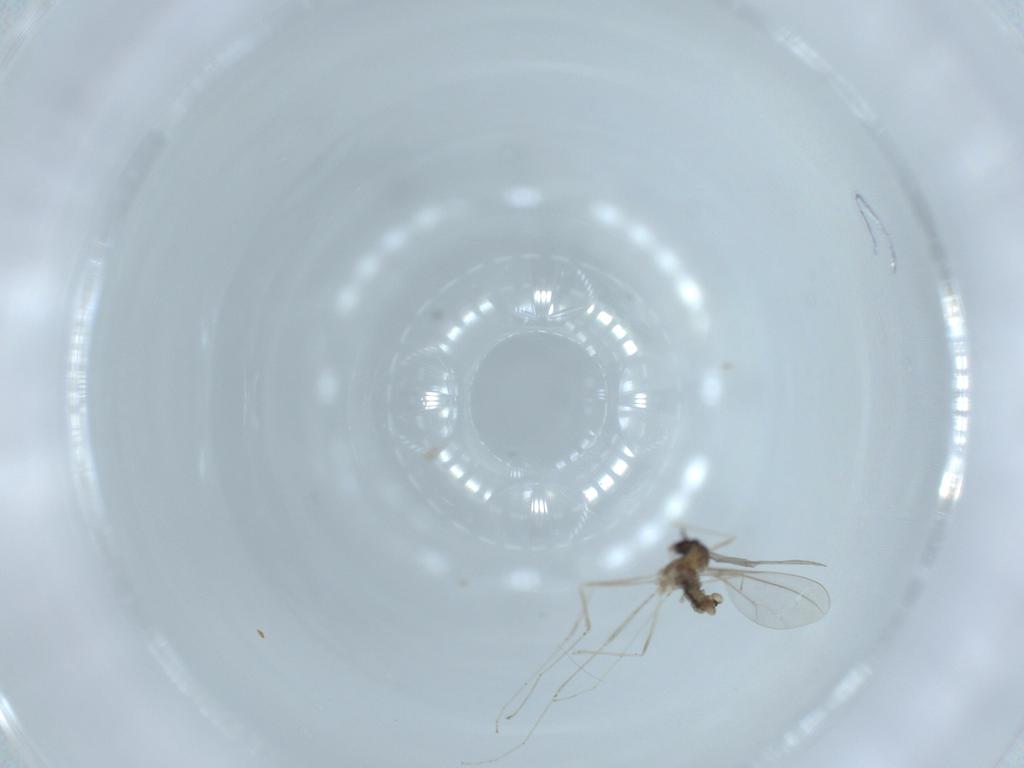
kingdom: Animalia
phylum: Arthropoda
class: Insecta
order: Diptera
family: Cecidomyiidae
